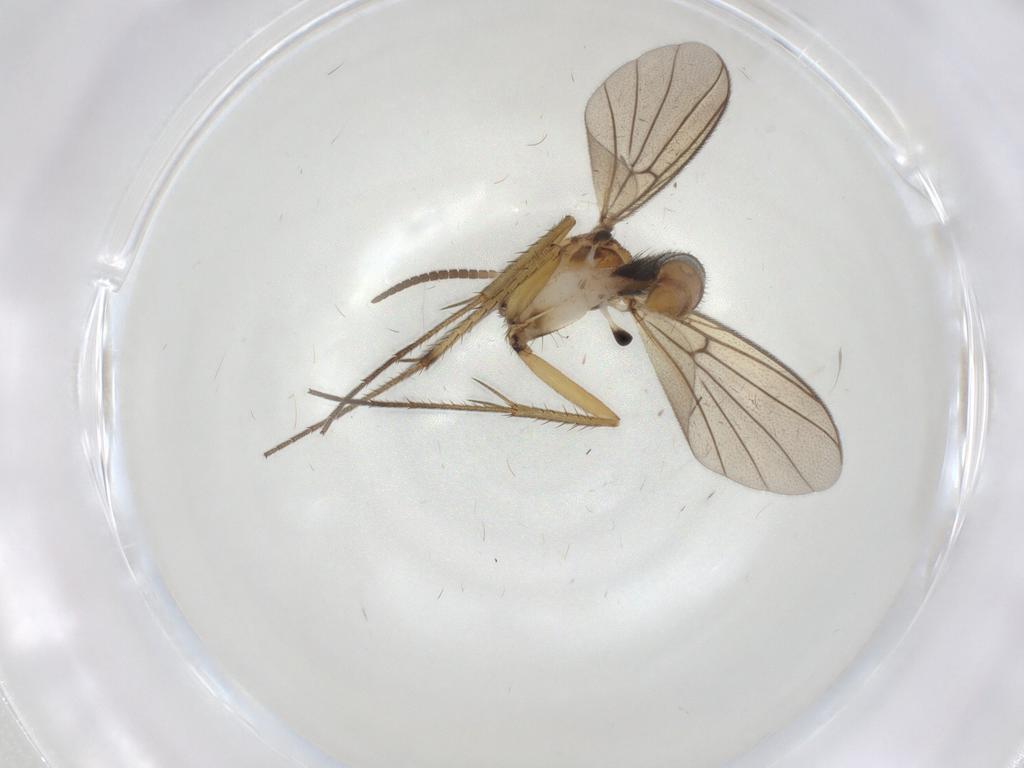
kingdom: Animalia
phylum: Arthropoda
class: Insecta
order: Diptera
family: Mycetophilidae
